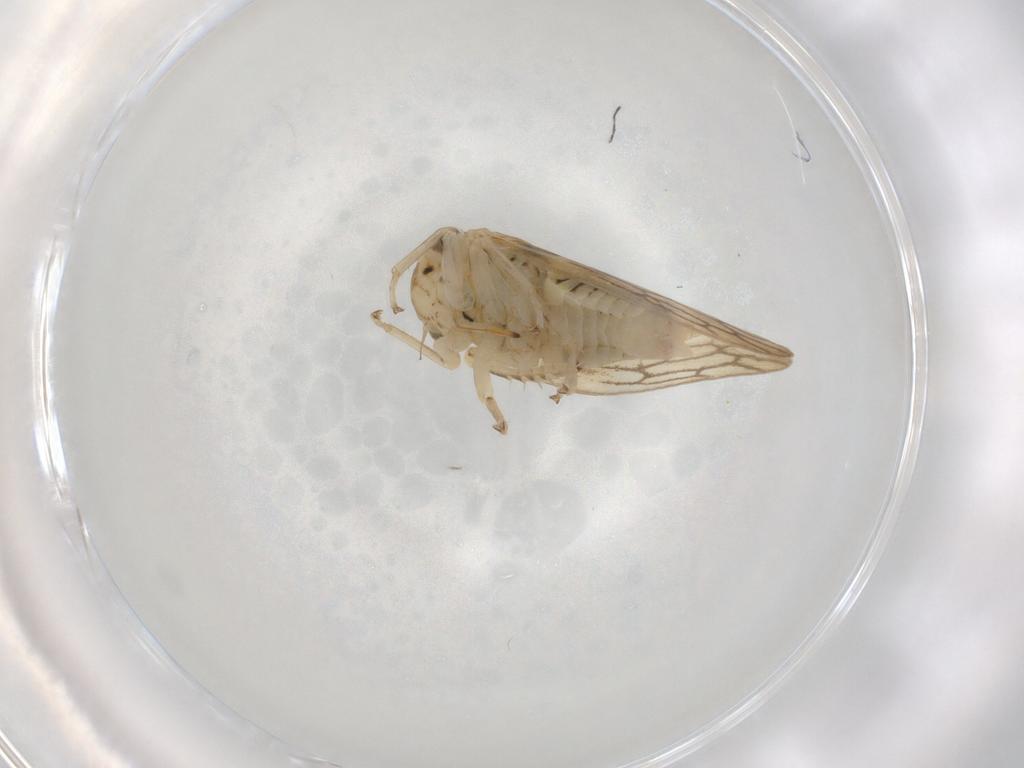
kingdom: Animalia
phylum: Arthropoda
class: Insecta
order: Hemiptera
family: Cicadellidae
